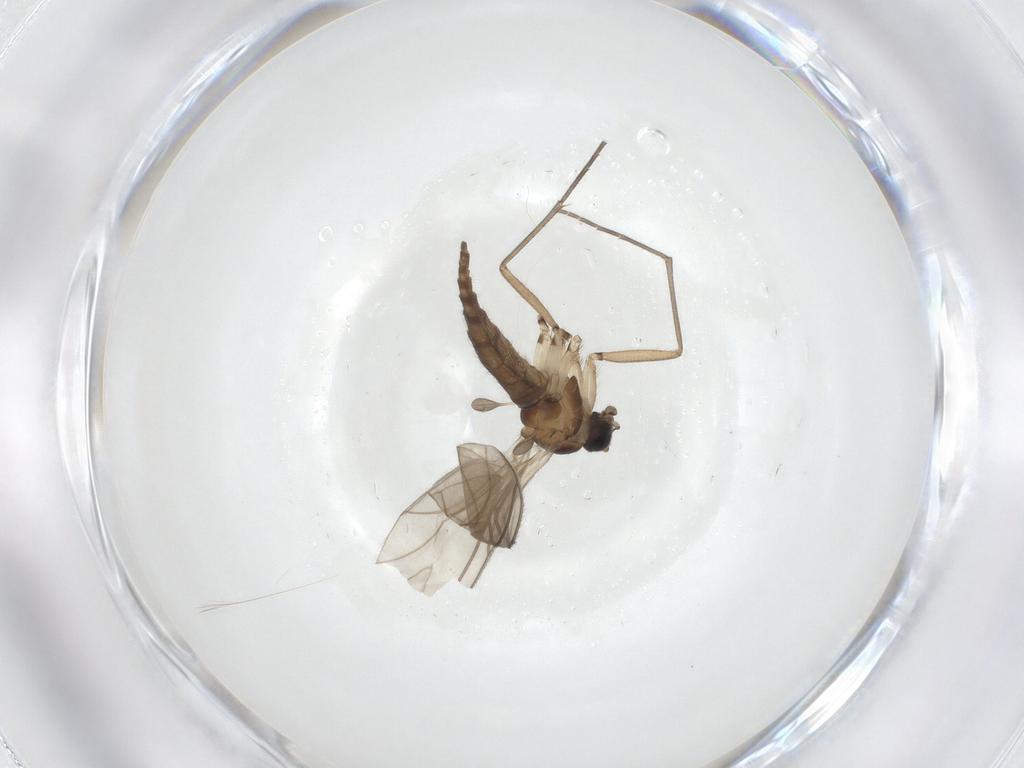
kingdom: Animalia
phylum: Arthropoda
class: Insecta
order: Diptera
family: Sciaridae
